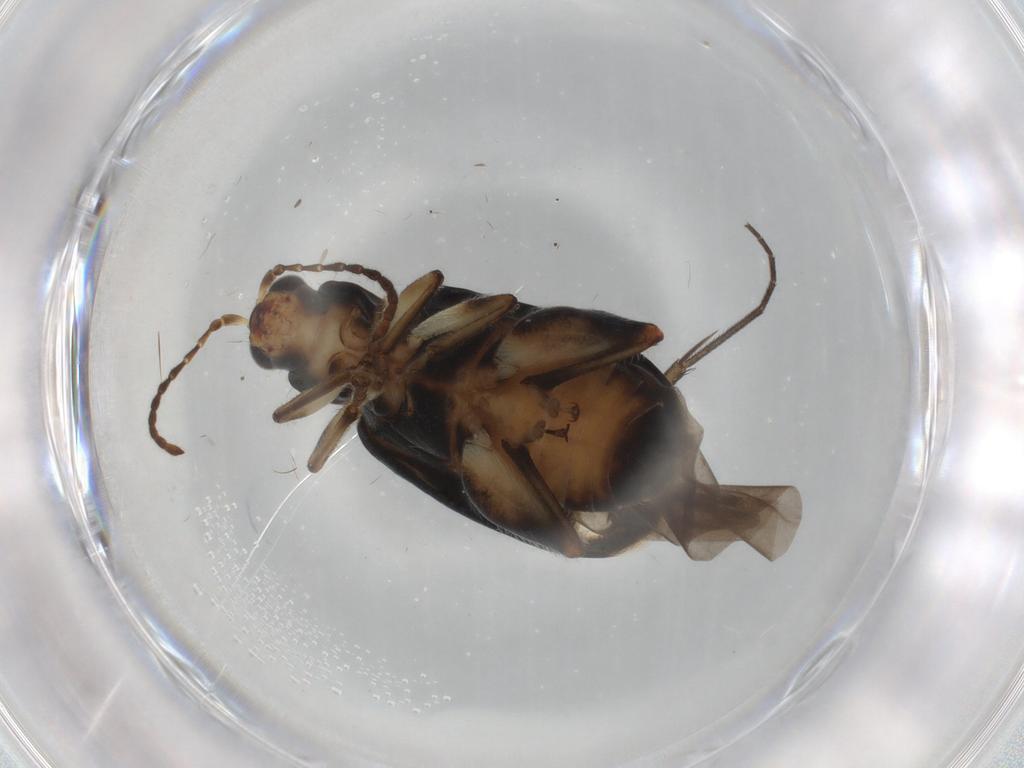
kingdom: Animalia
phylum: Arthropoda
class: Insecta
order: Coleoptera
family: Chrysomelidae
